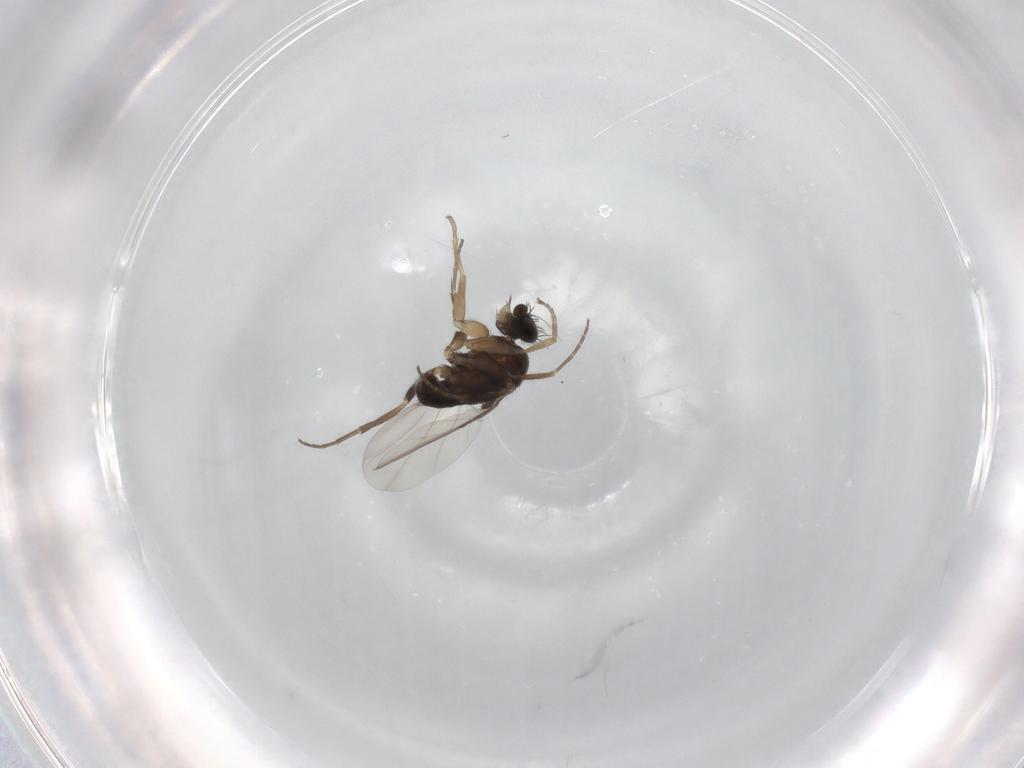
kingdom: Animalia
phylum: Arthropoda
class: Insecta
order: Diptera
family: Phoridae
